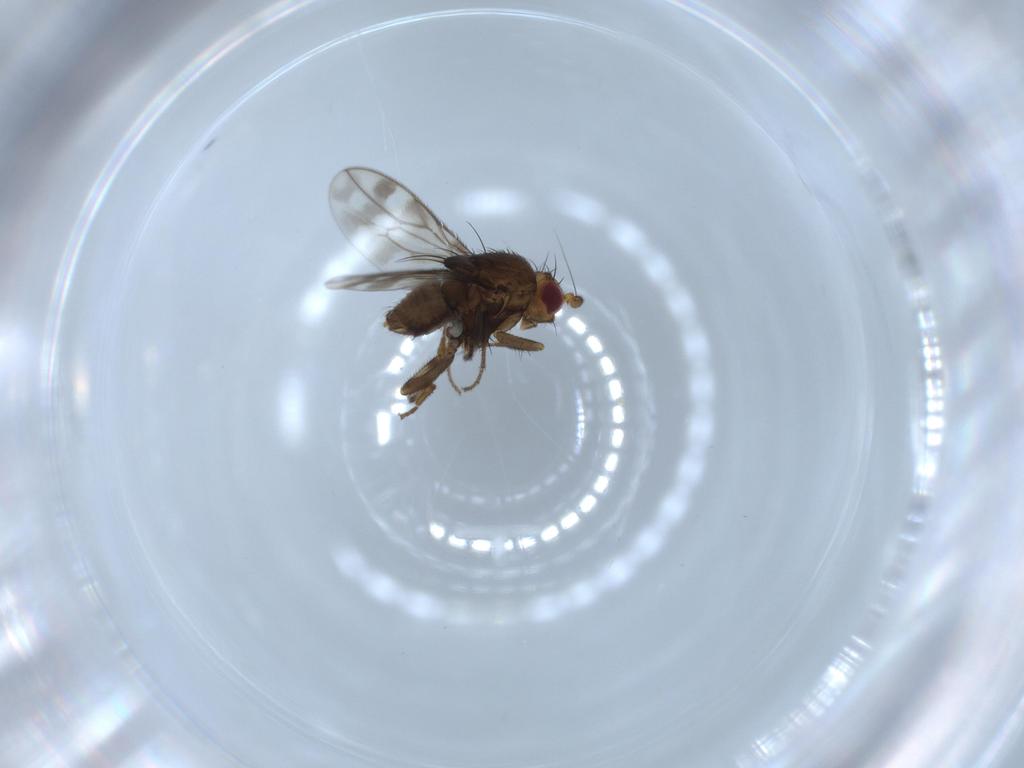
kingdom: Animalia
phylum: Arthropoda
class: Insecta
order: Diptera
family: Sphaeroceridae
